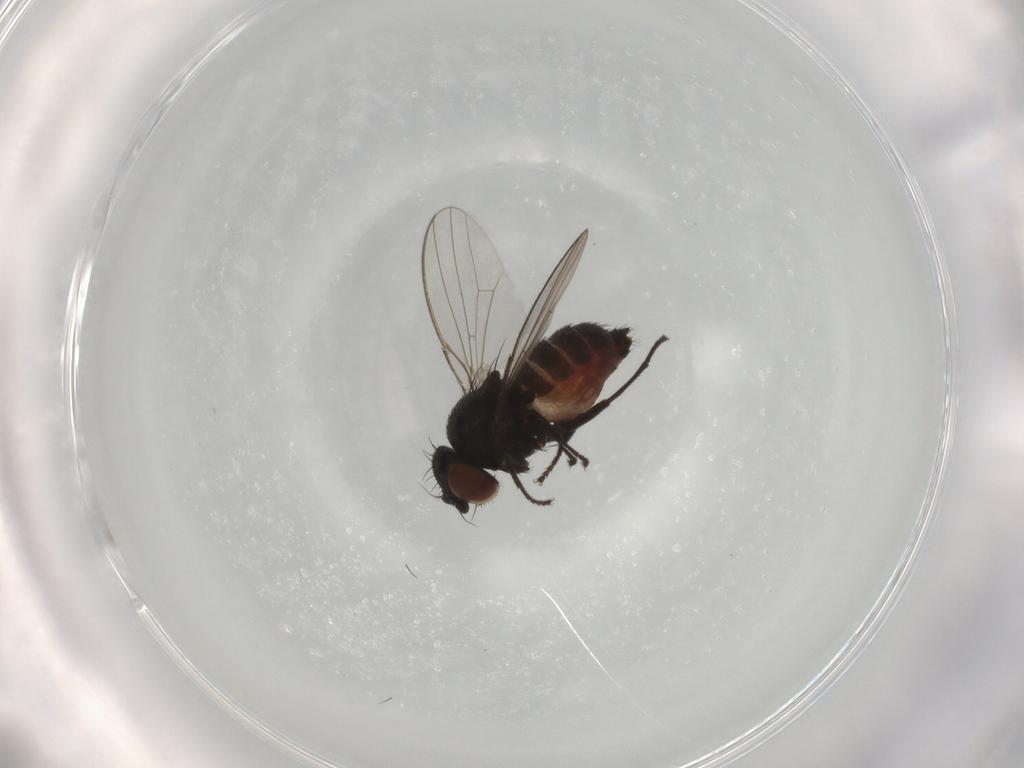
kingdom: Animalia
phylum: Arthropoda
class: Insecta
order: Diptera
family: Milichiidae
